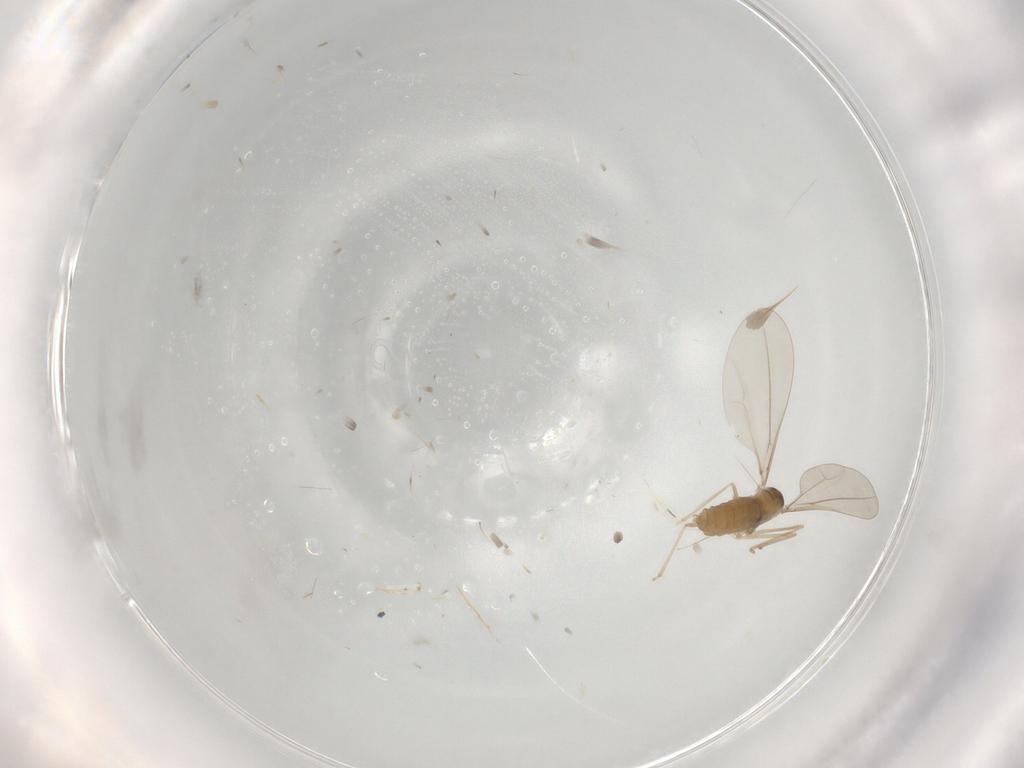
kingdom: Animalia
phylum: Arthropoda
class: Insecta
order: Diptera
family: Cecidomyiidae
